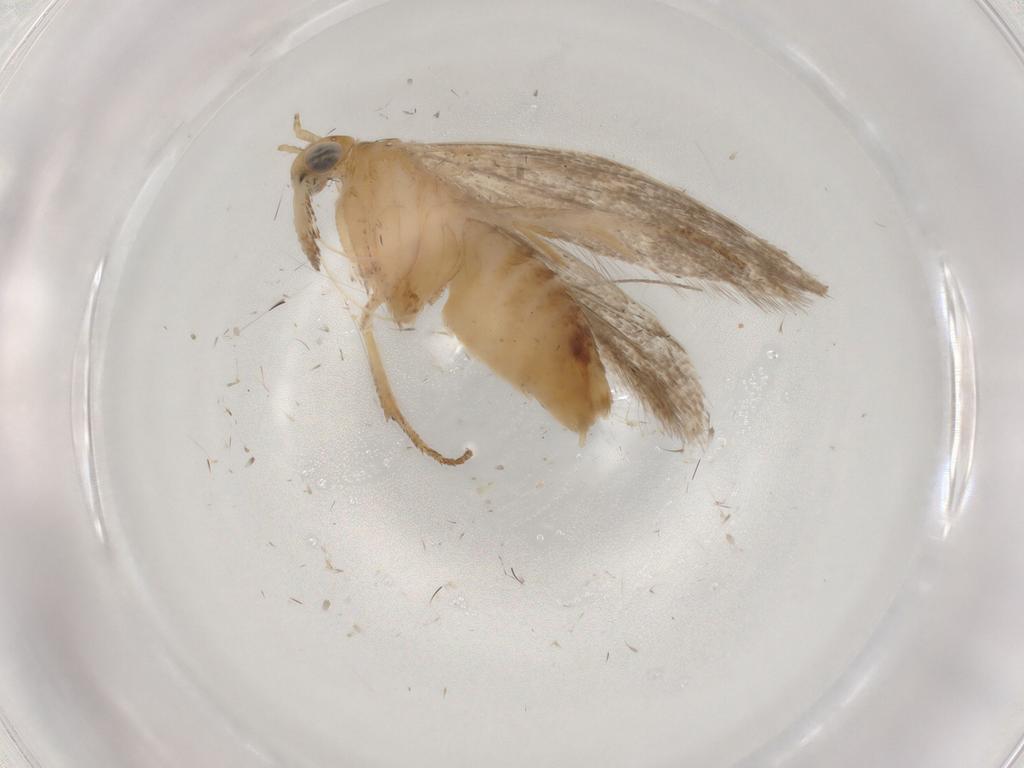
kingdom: Animalia
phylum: Arthropoda
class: Insecta
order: Lepidoptera
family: Plutellidae
